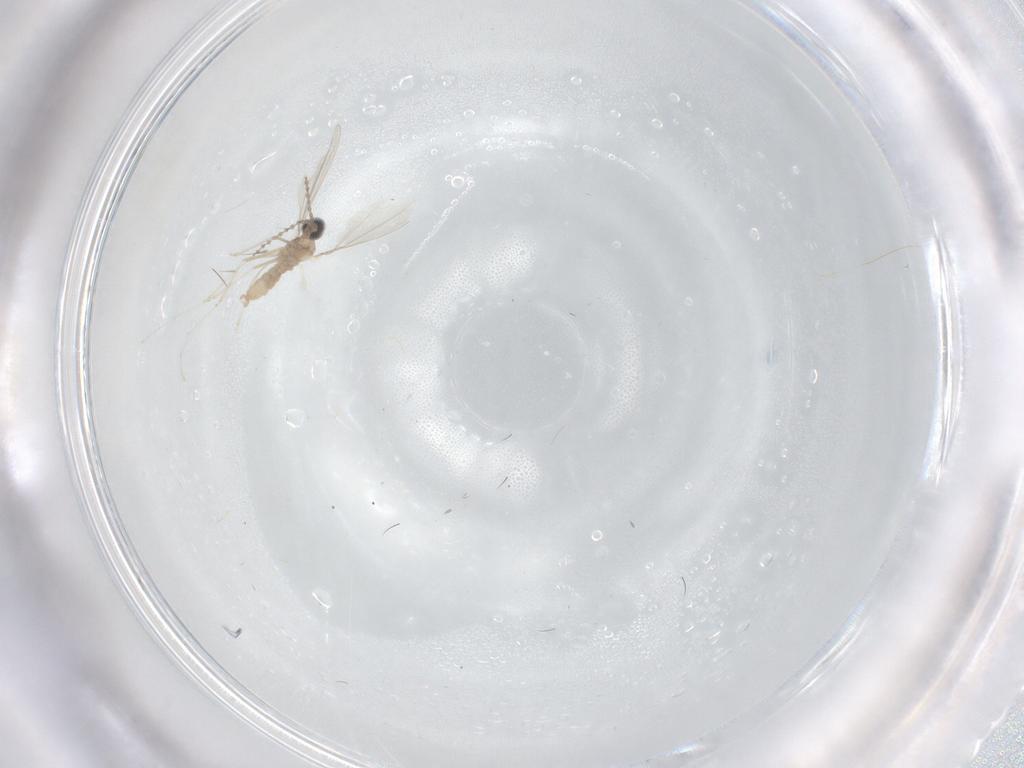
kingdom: Animalia
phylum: Arthropoda
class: Insecta
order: Diptera
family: Cecidomyiidae
